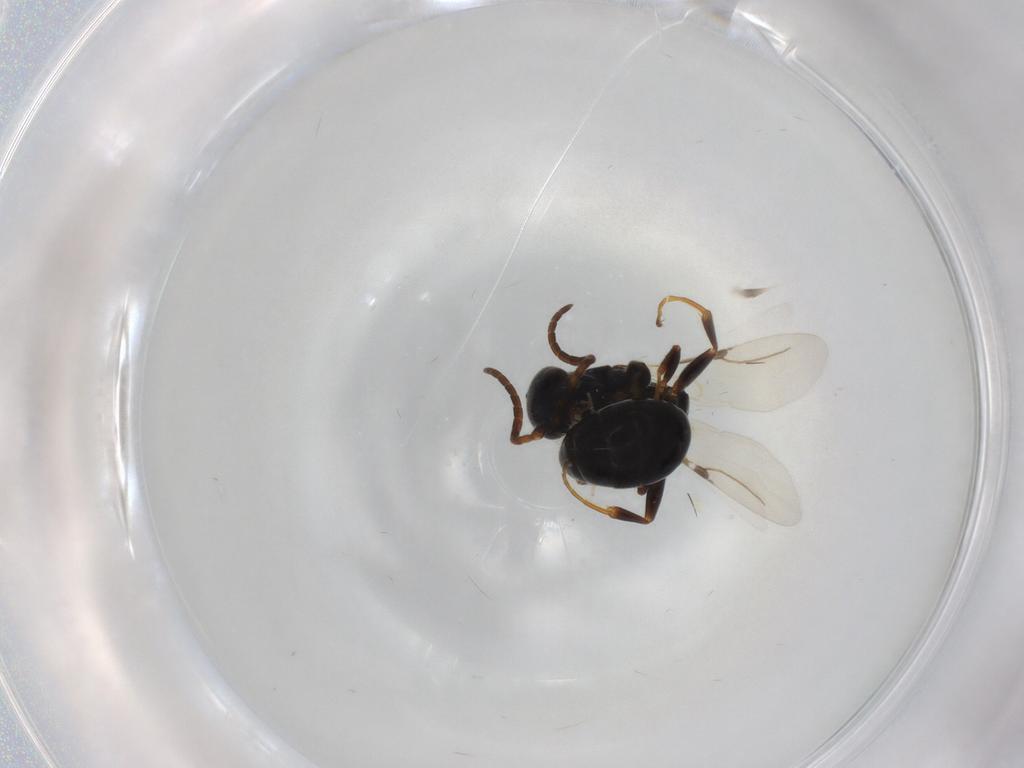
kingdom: Animalia
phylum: Arthropoda
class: Insecta
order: Hymenoptera
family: Bethylidae
